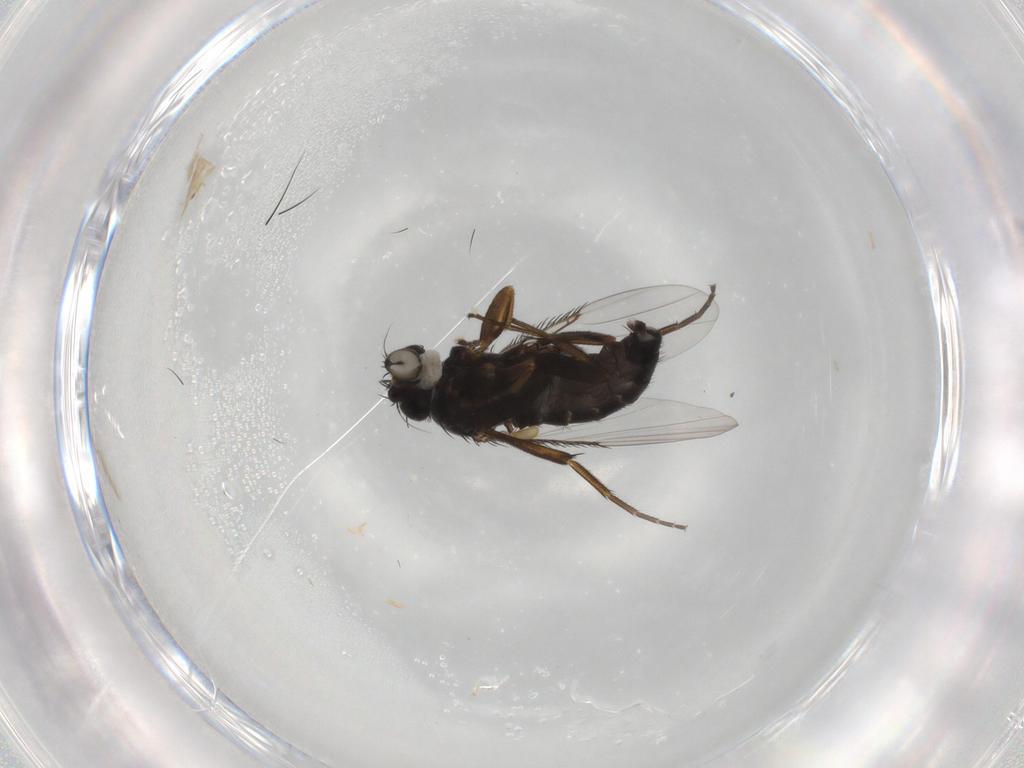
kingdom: Animalia
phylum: Arthropoda
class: Insecta
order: Diptera
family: Phoridae
